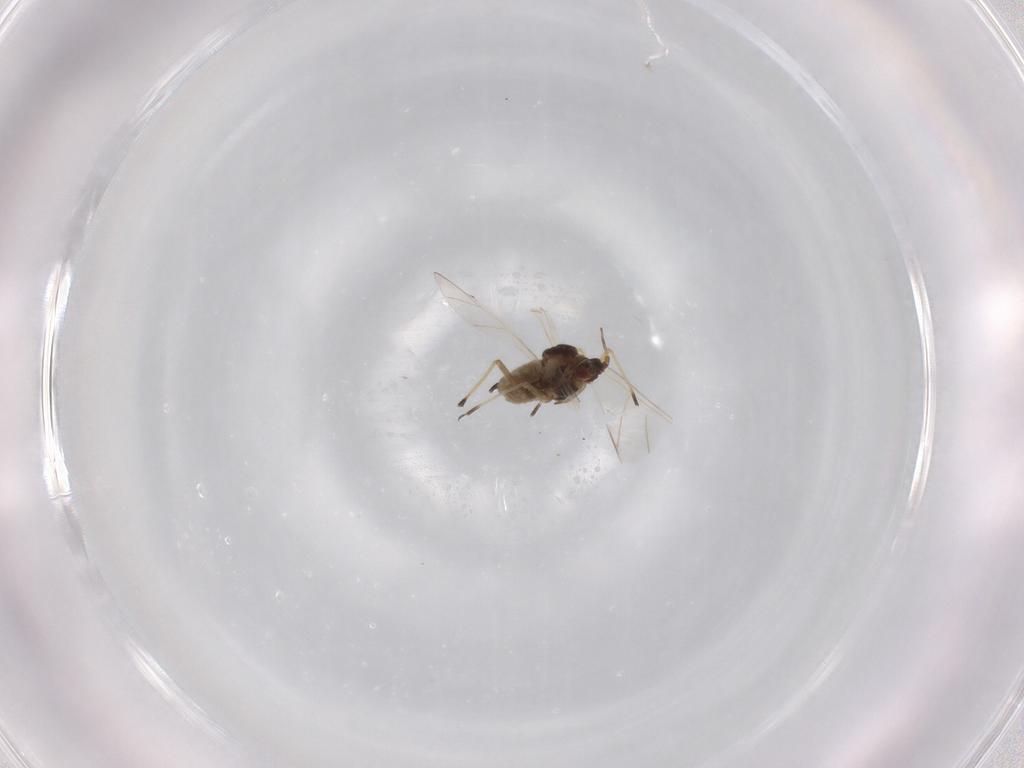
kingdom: Animalia
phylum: Arthropoda
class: Insecta
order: Hemiptera
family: Aphididae
